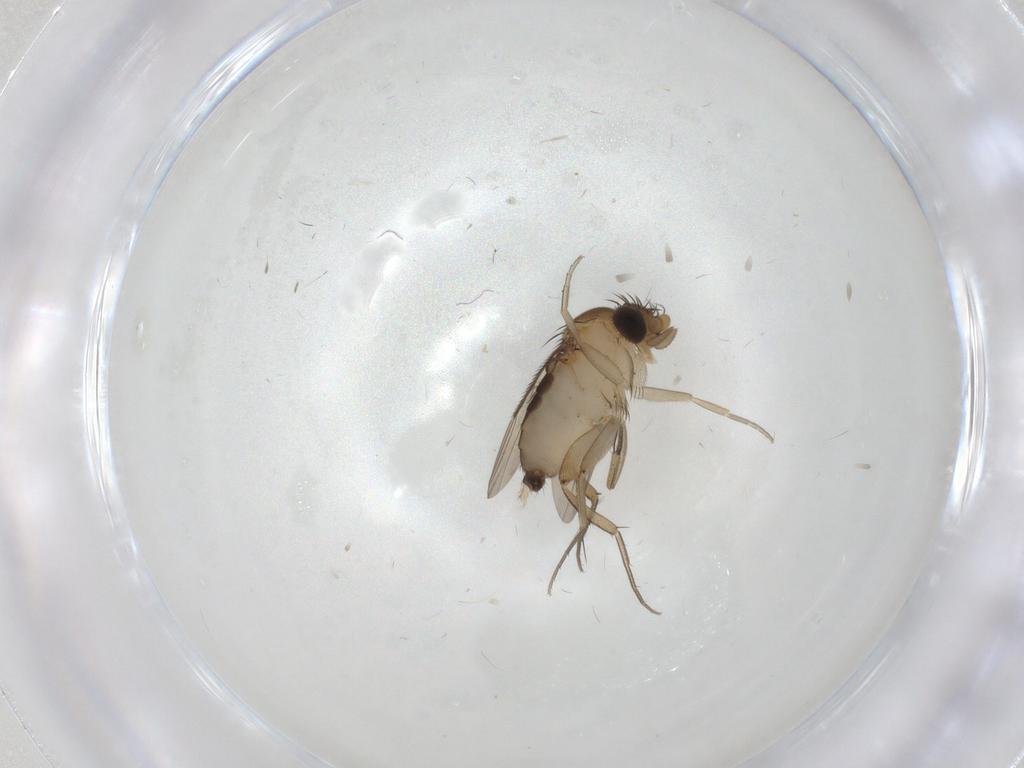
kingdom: Animalia
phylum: Arthropoda
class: Insecta
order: Diptera
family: Phoridae
